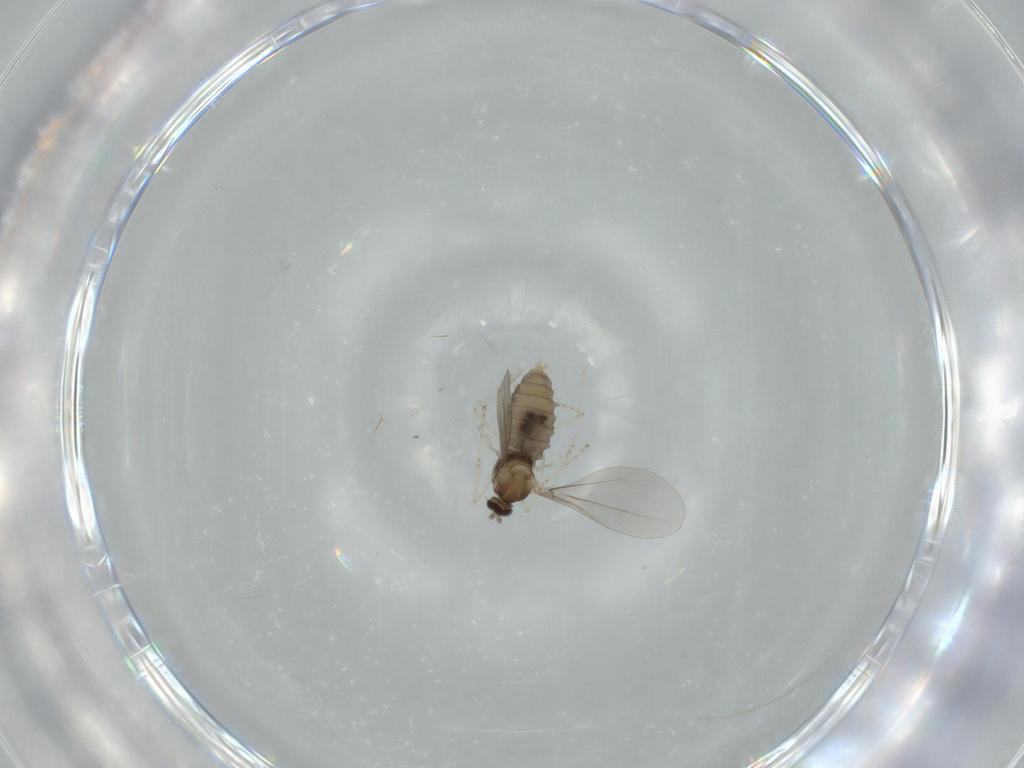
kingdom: Animalia
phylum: Arthropoda
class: Insecta
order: Diptera
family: Cecidomyiidae
